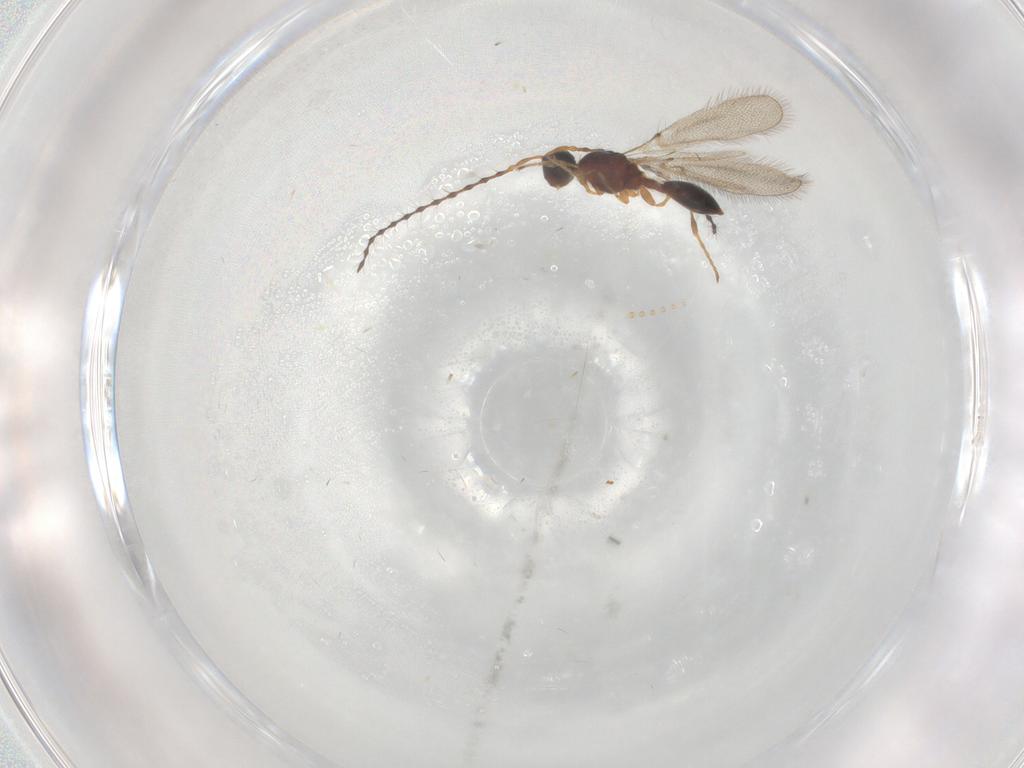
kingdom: Animalia
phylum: Arthropoda
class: Insecta
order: Hymenoptera
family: Diapriidae
